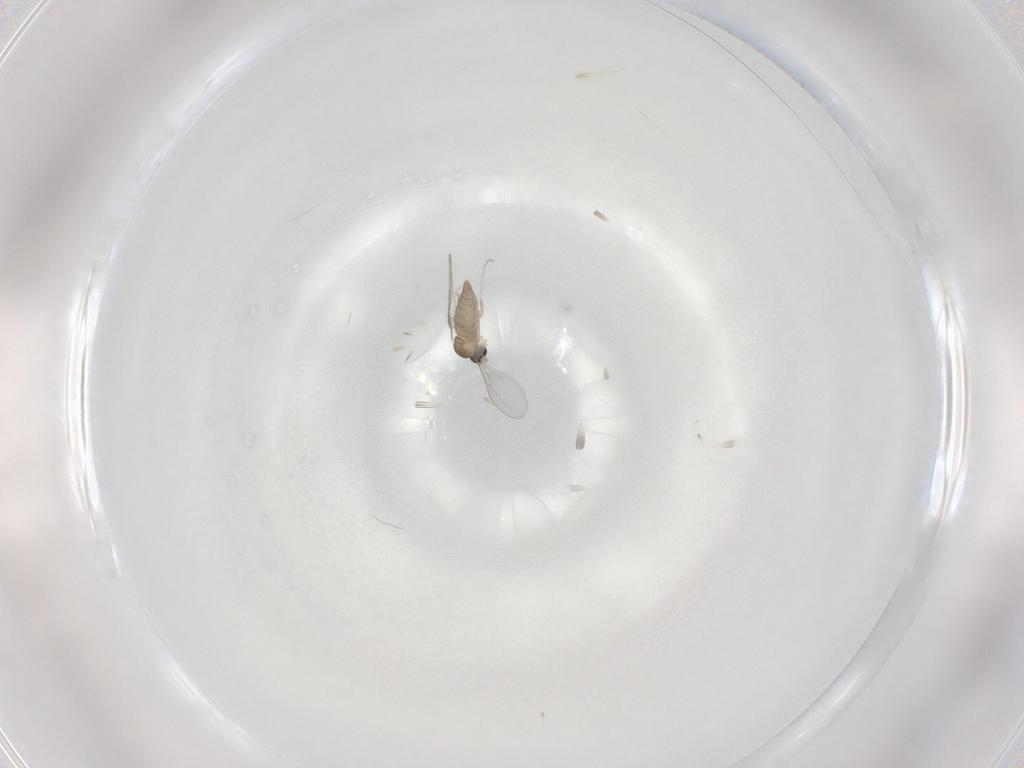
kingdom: Animalia
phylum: Arthropoda
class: Insecta
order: Diptera
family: Cecidomyiidae
